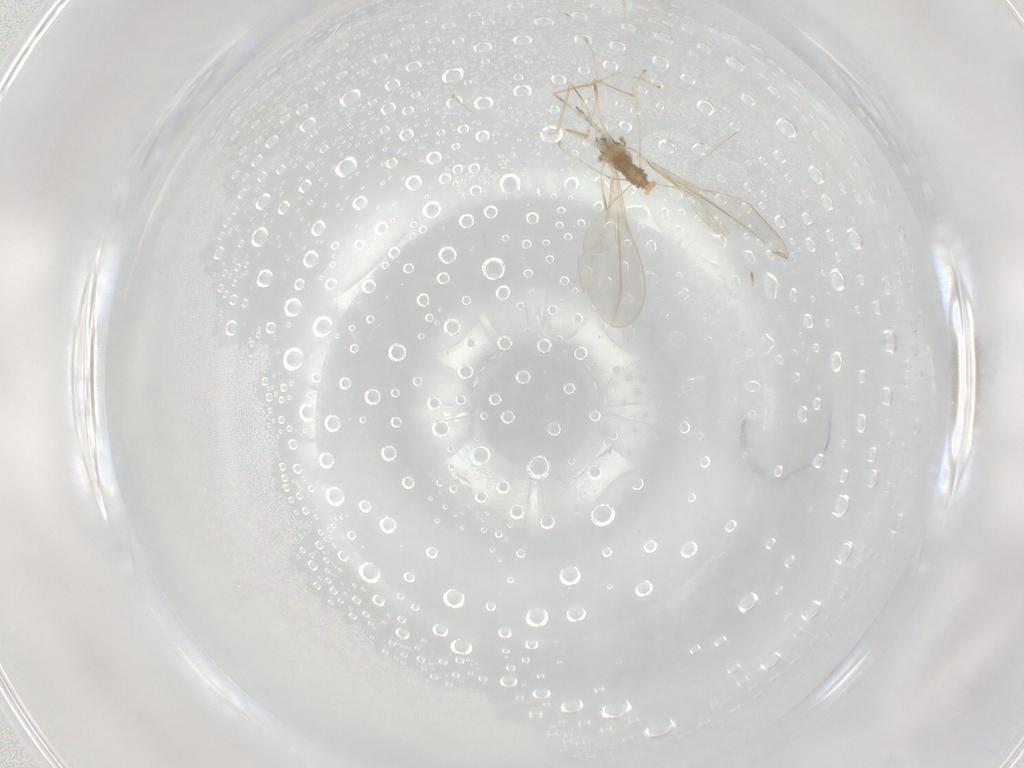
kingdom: Animalia
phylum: Arthropoda
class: Insecta
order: Diptera
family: Cecidomyiidae
